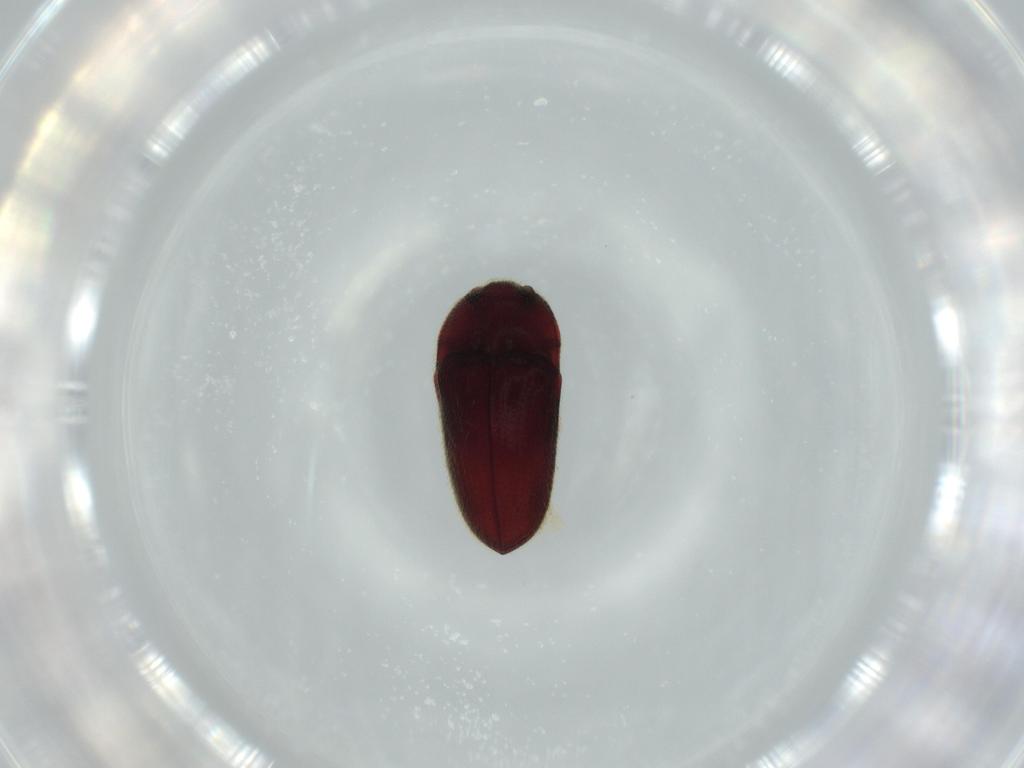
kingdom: Animalia
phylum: Arthropoda
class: Insecta
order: Coleoptera
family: Throscidae
